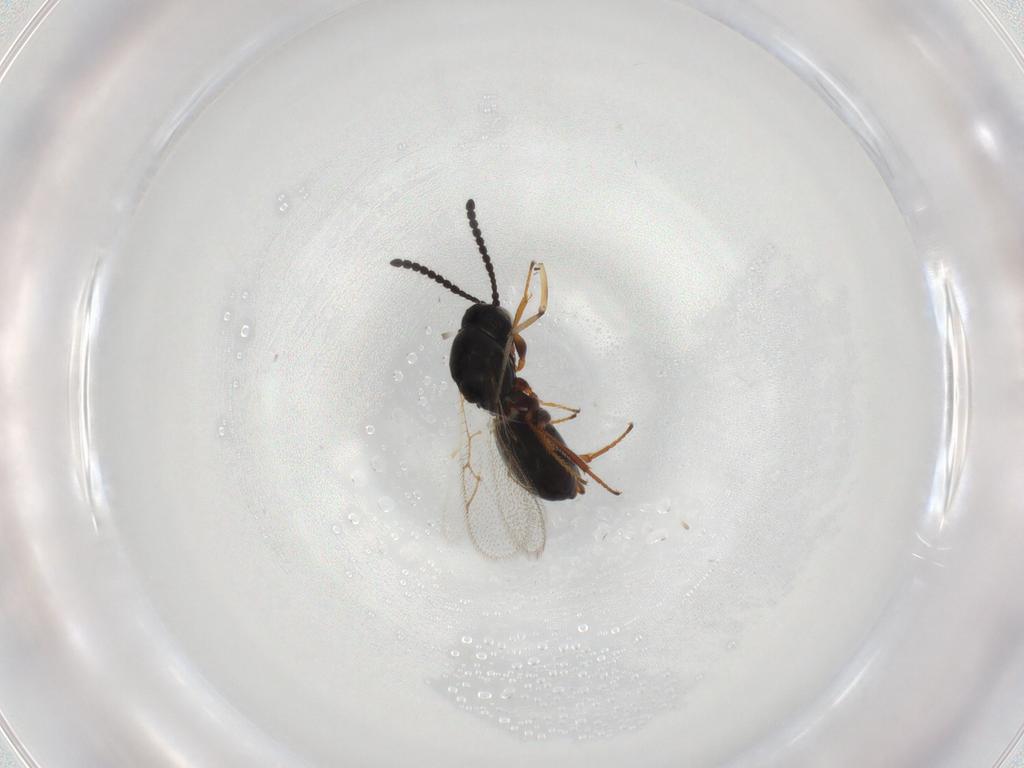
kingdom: Animalia
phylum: Arthropoda
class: Insecta
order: Hymenoptera
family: Figitidae
